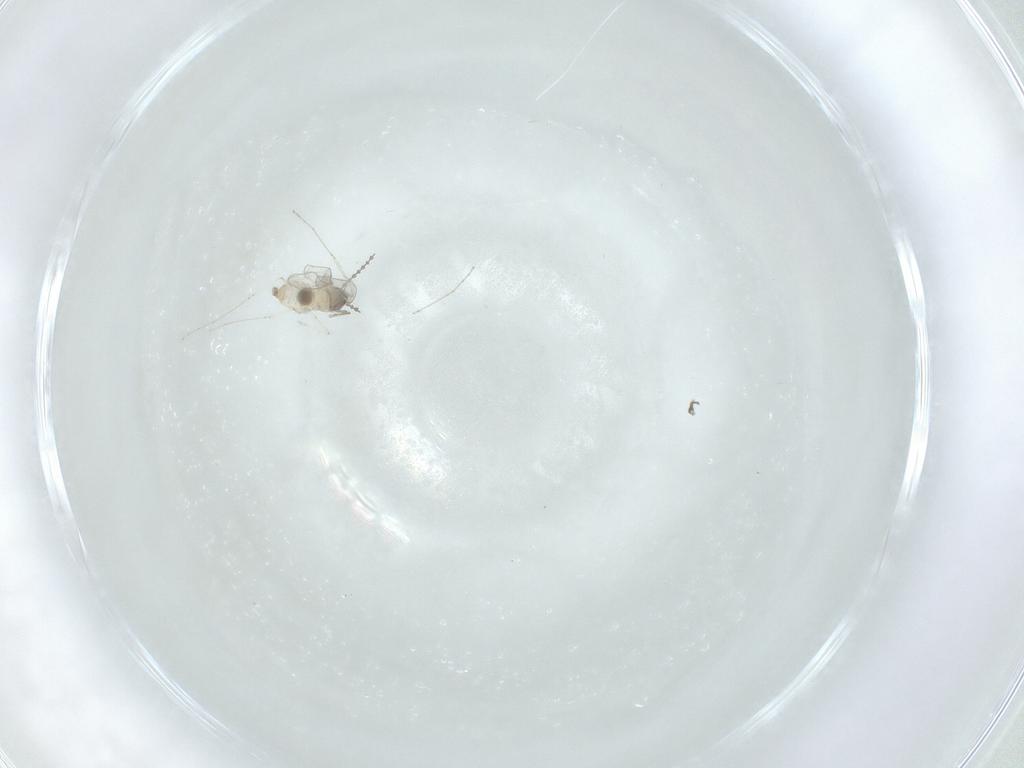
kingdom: Animalia
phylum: Arthropoda
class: Insecta
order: Diptera
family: Cecidomyiidae
